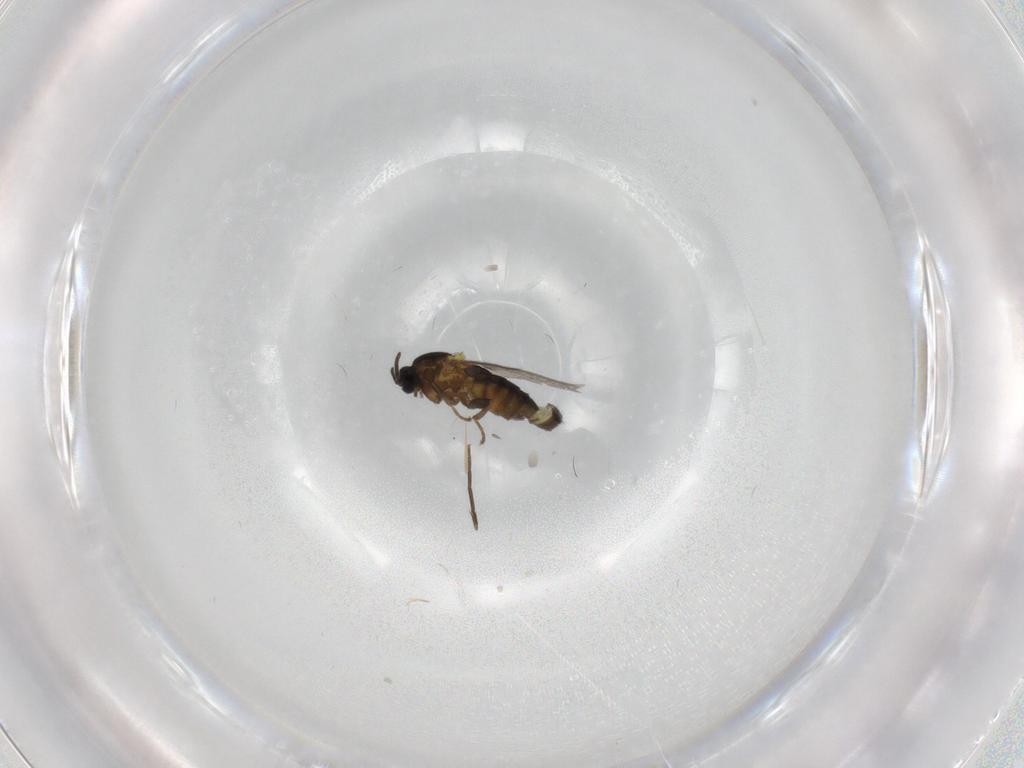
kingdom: Animalia
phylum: Arthropoda
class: Insecta
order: Diptera
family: Scatopsidae
